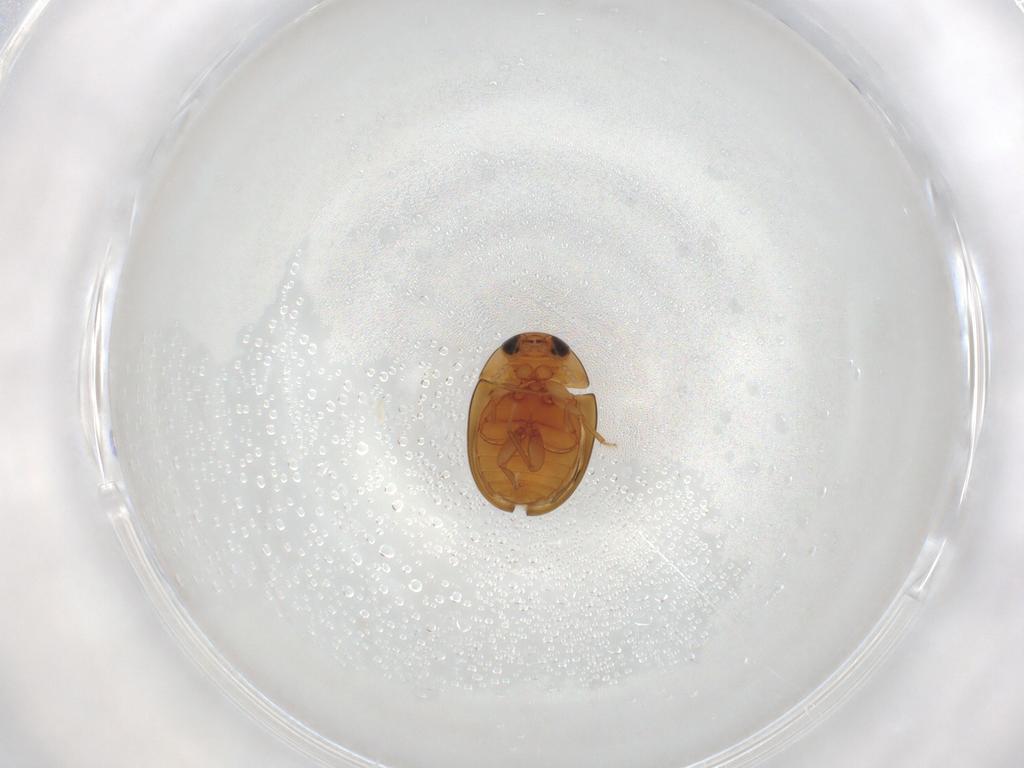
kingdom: Animalia
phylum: Arthropoda
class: Insecta
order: Coleoptera
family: Phalacridae
